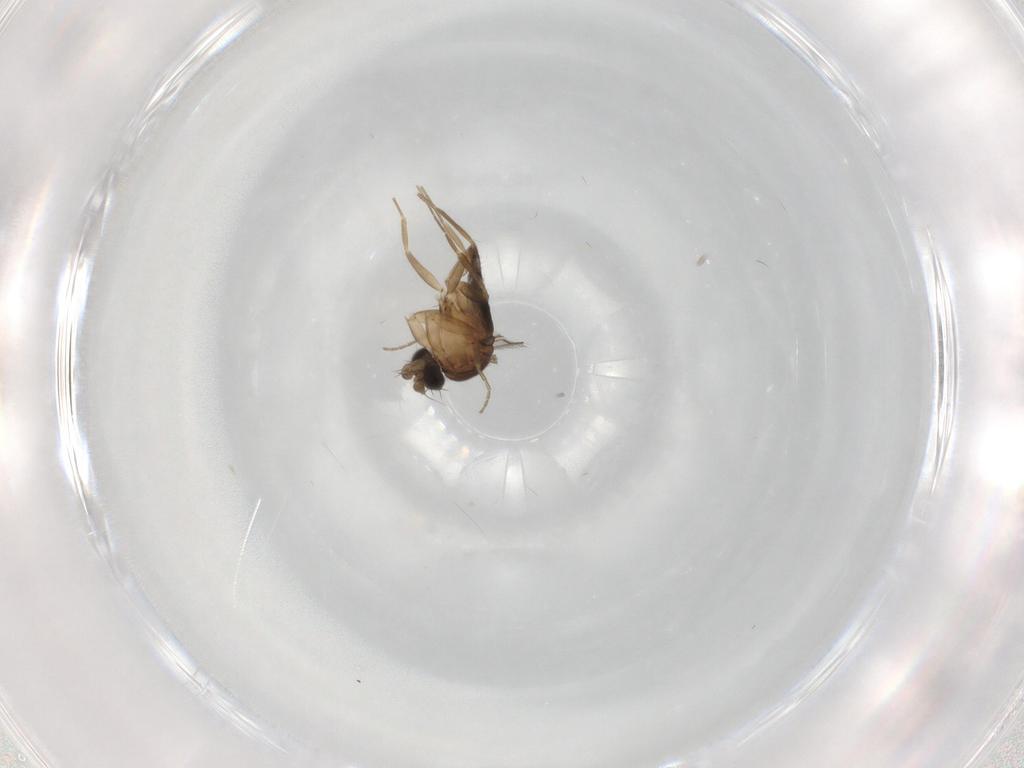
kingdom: Animalia
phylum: Arthropoda
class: Insecta
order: Diptera
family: Phoridae
